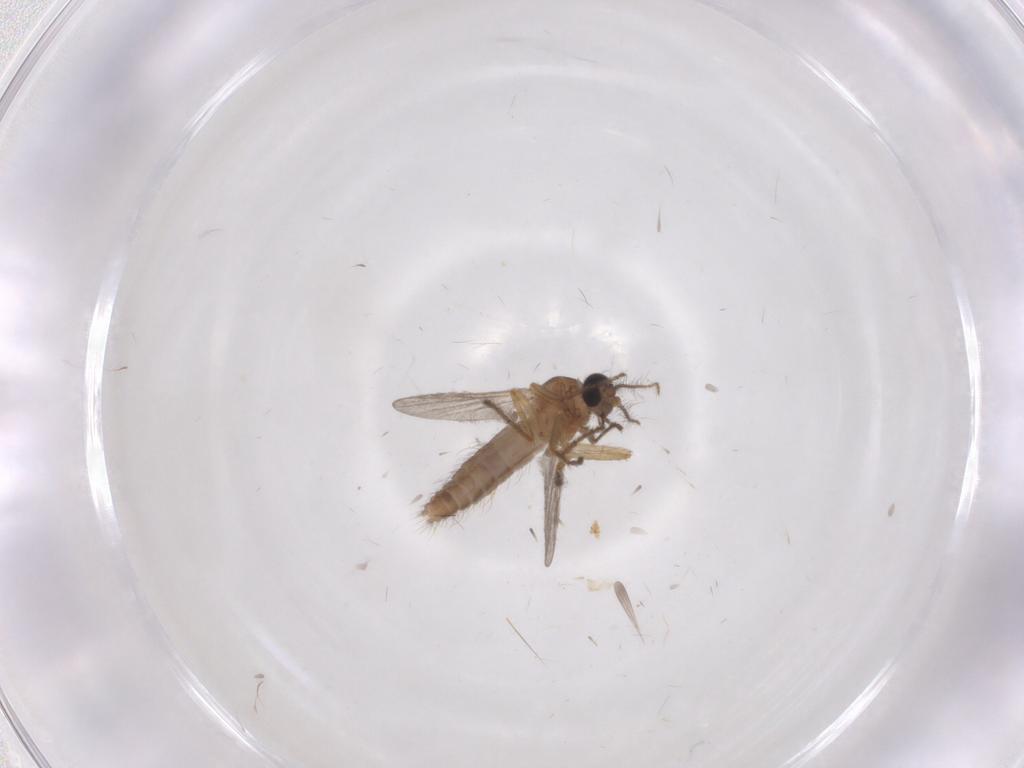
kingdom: Animalia
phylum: Arthropoda
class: Insecta
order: Diptera
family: Ceratopogonidae
